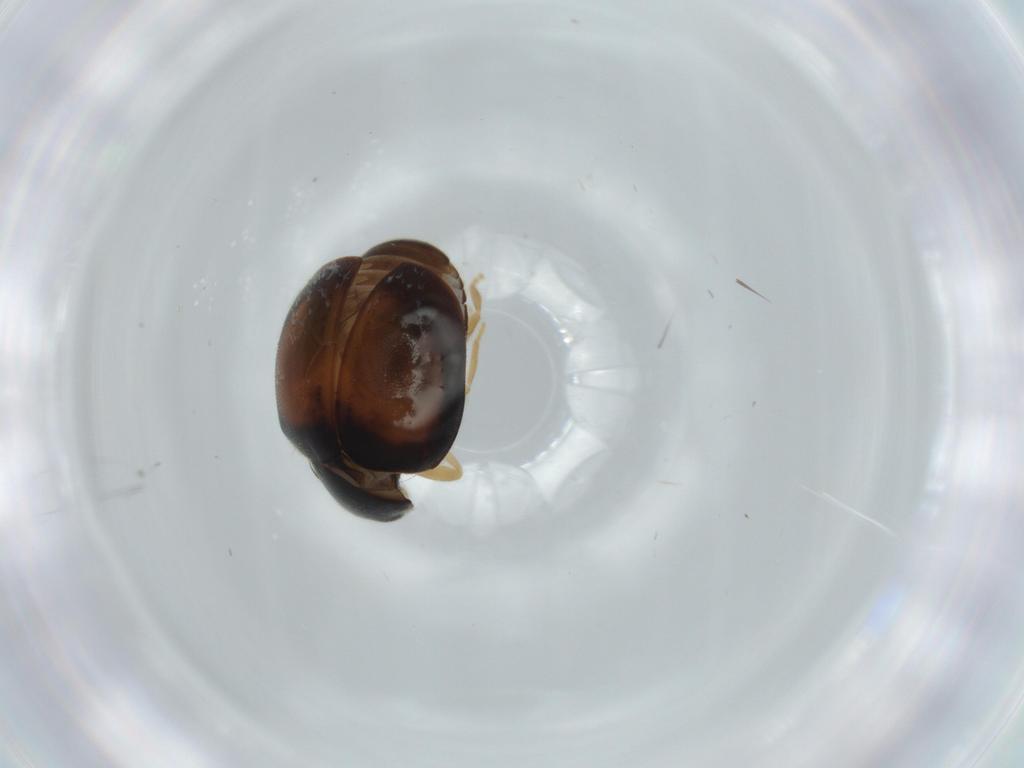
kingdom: Animalia
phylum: Arthropoda
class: Insecta
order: Coleoptera
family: Coccinellidae
